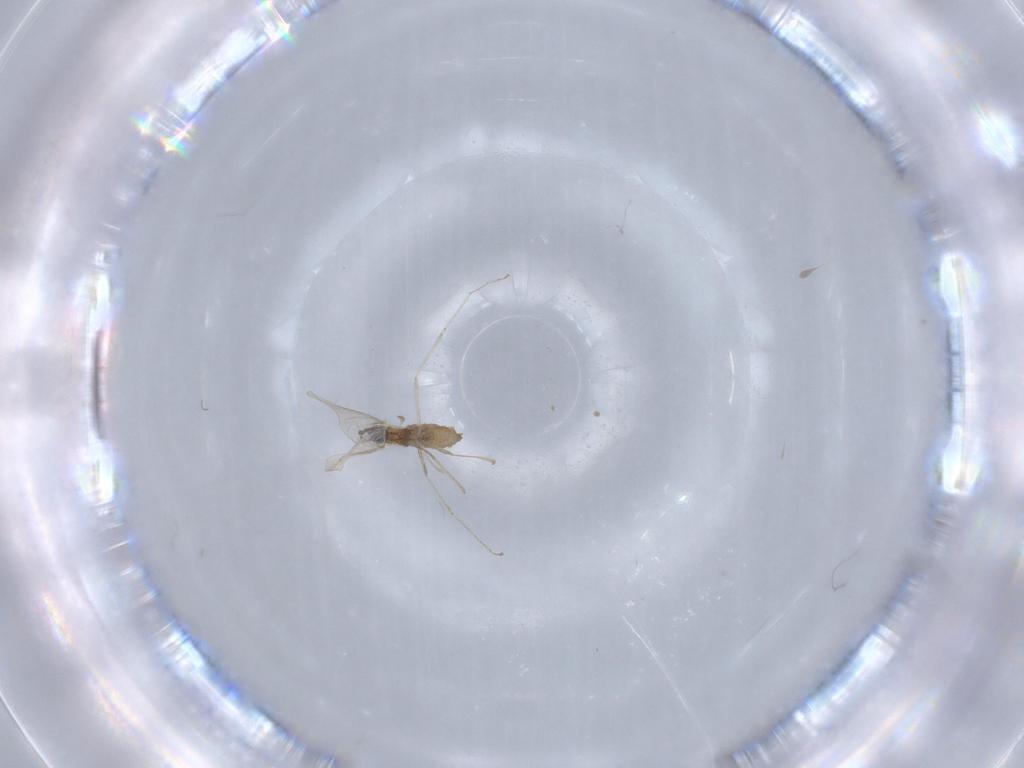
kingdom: Animalia
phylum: Arthropoda
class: Insecta
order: Diptera
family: Cecidomyiidae
